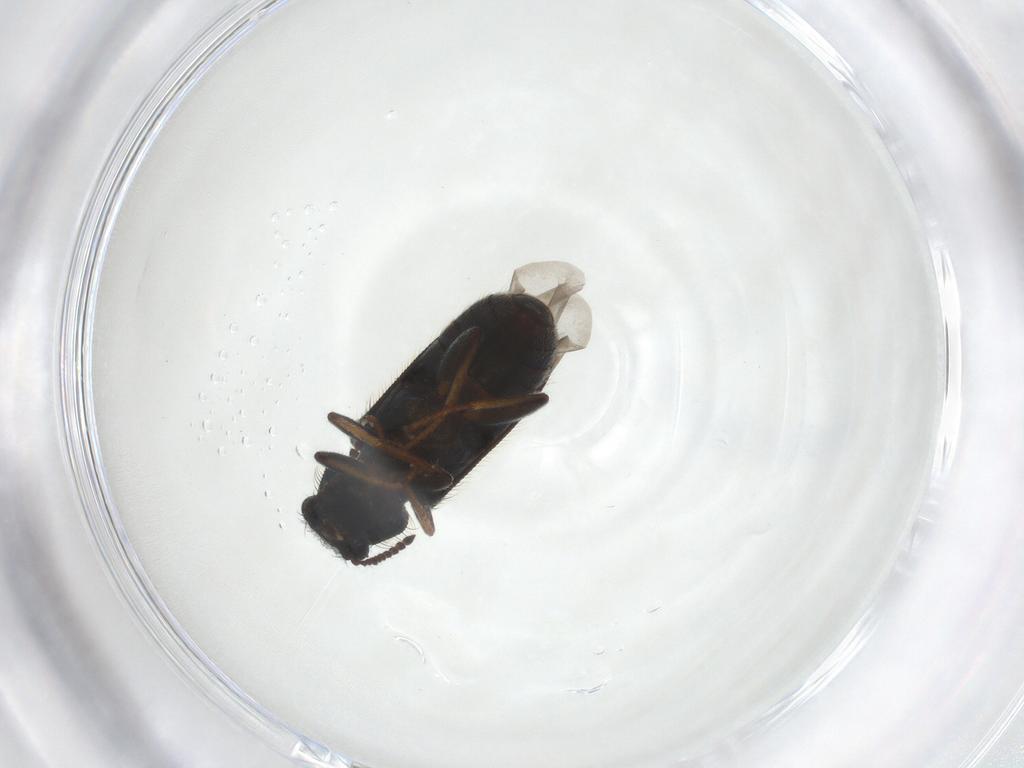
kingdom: Animalia
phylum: Arthropoda
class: Insecta
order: Coleoptera
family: Melyridae
